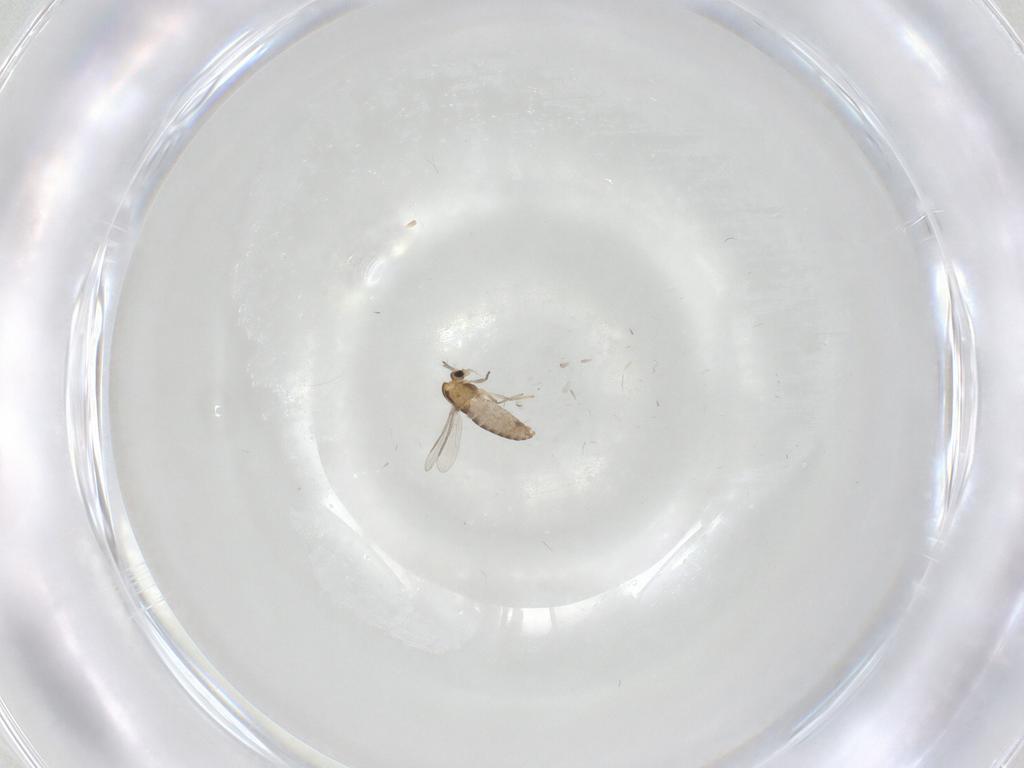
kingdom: Animalia
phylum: Arthropoda
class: Insecta
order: Diptera
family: Chironomidae
